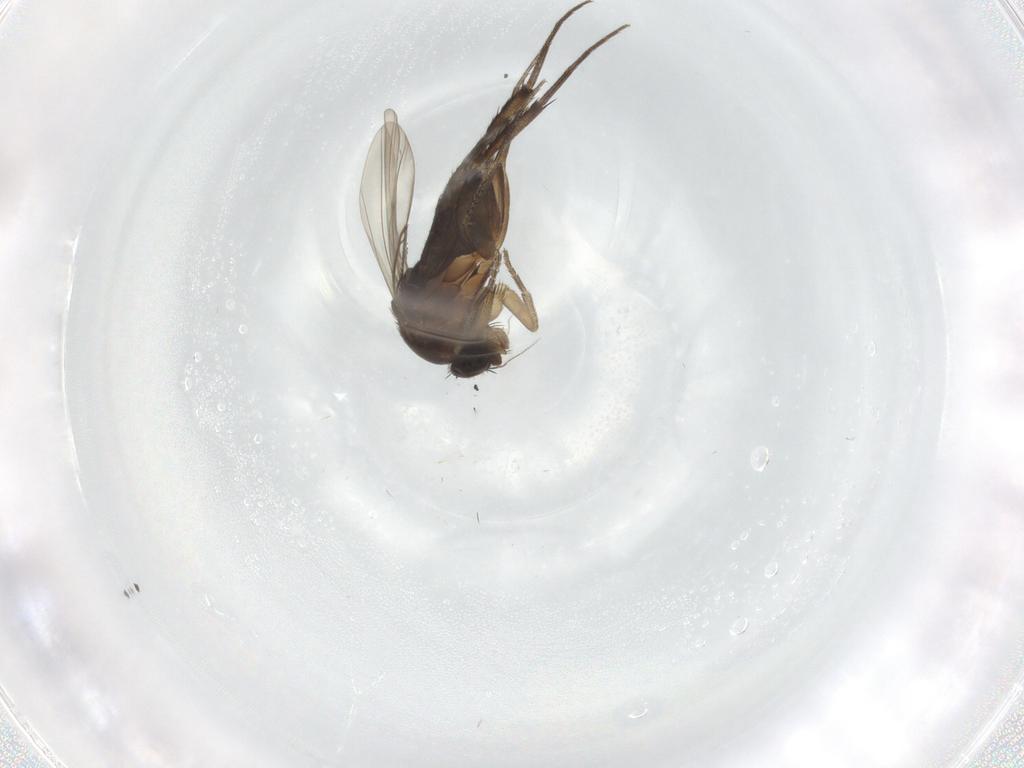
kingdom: Animalia
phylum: Arthropoda
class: Insecta
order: Diptera
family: Phoridae
